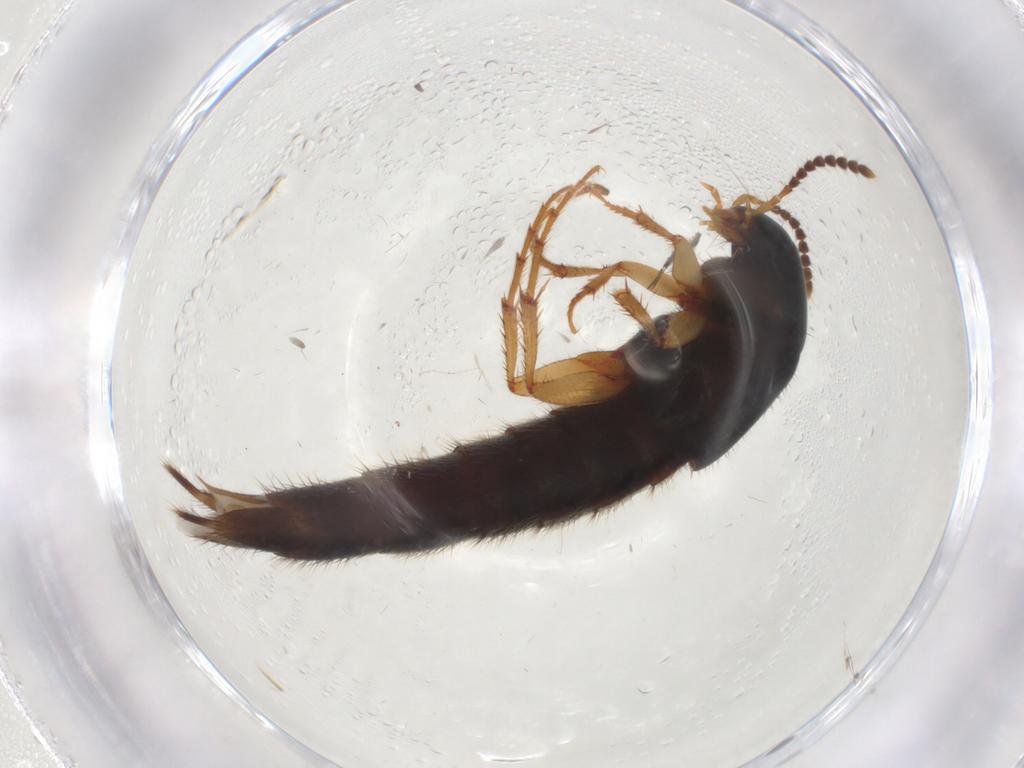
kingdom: Animalia
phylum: Arthropoda
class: Insecta
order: Coleoptera
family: Staphylinidae
